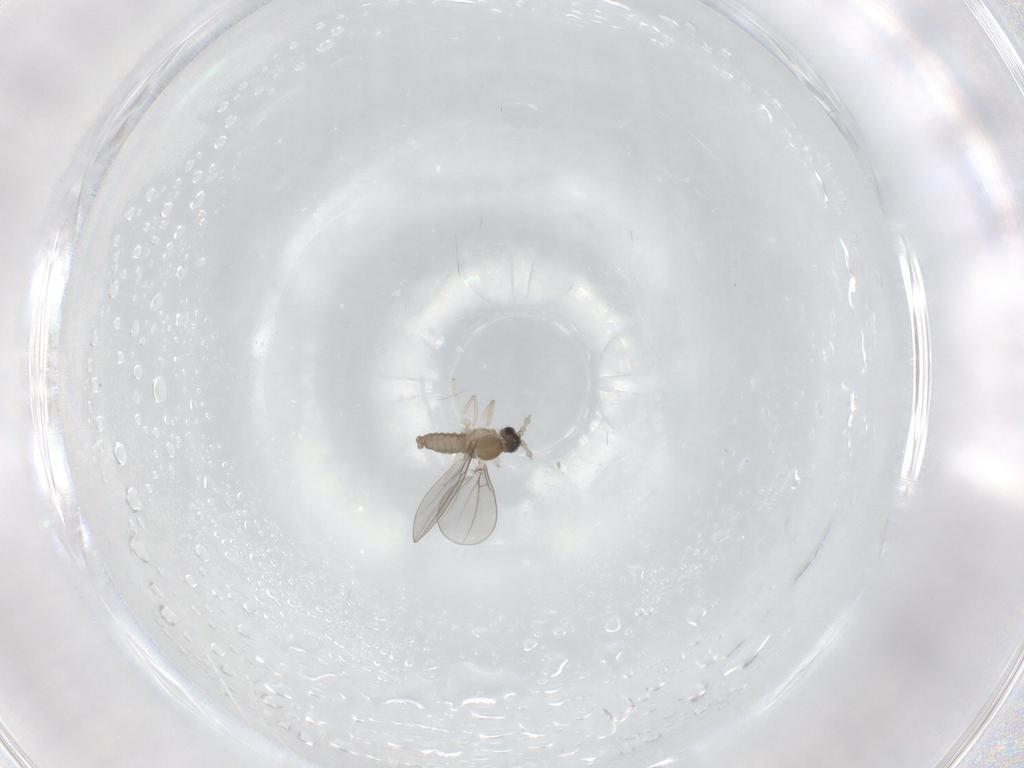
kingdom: Animalia
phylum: Arthropoda
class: Insecta
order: Diptera
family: Cecidomyiidae
